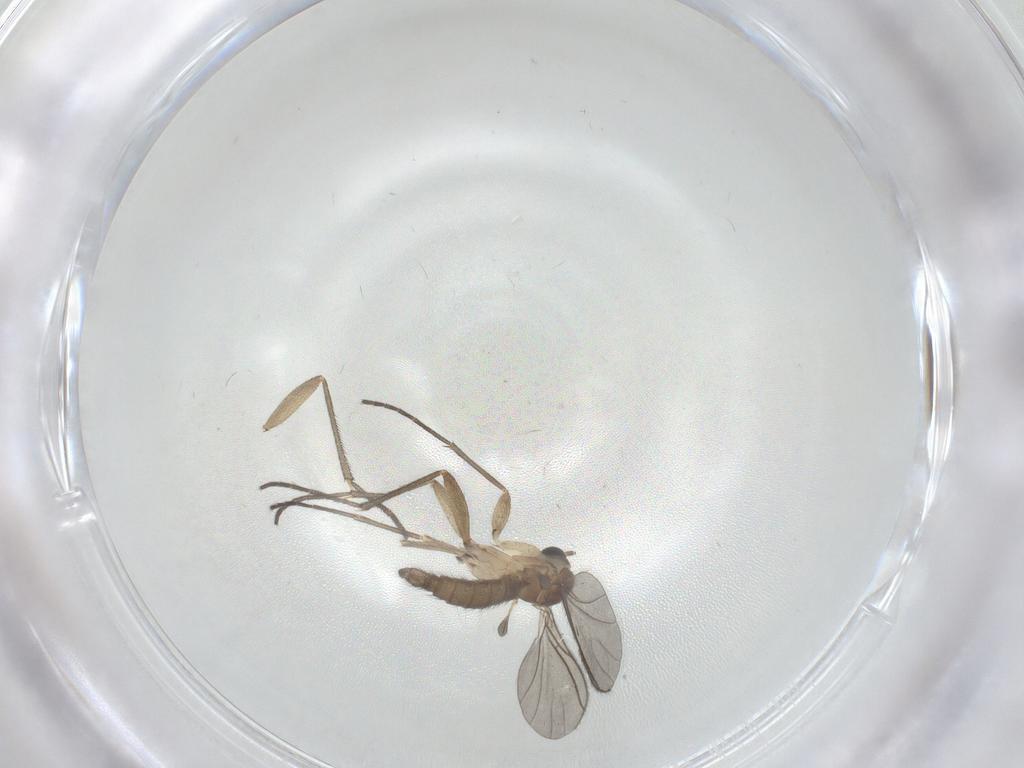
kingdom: Animalia
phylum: Arthropoda
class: Insecta
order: Diptera
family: Sciaridae
